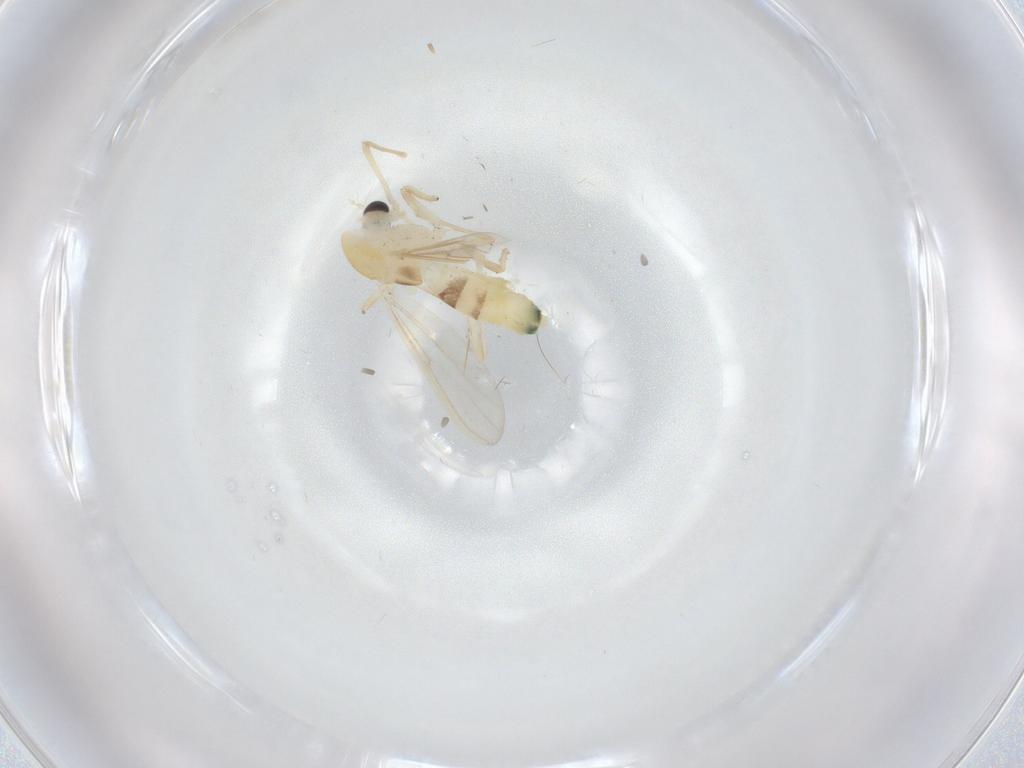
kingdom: Animalia
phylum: Arthropoda
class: Insecta
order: Diptera
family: Chironomidae
